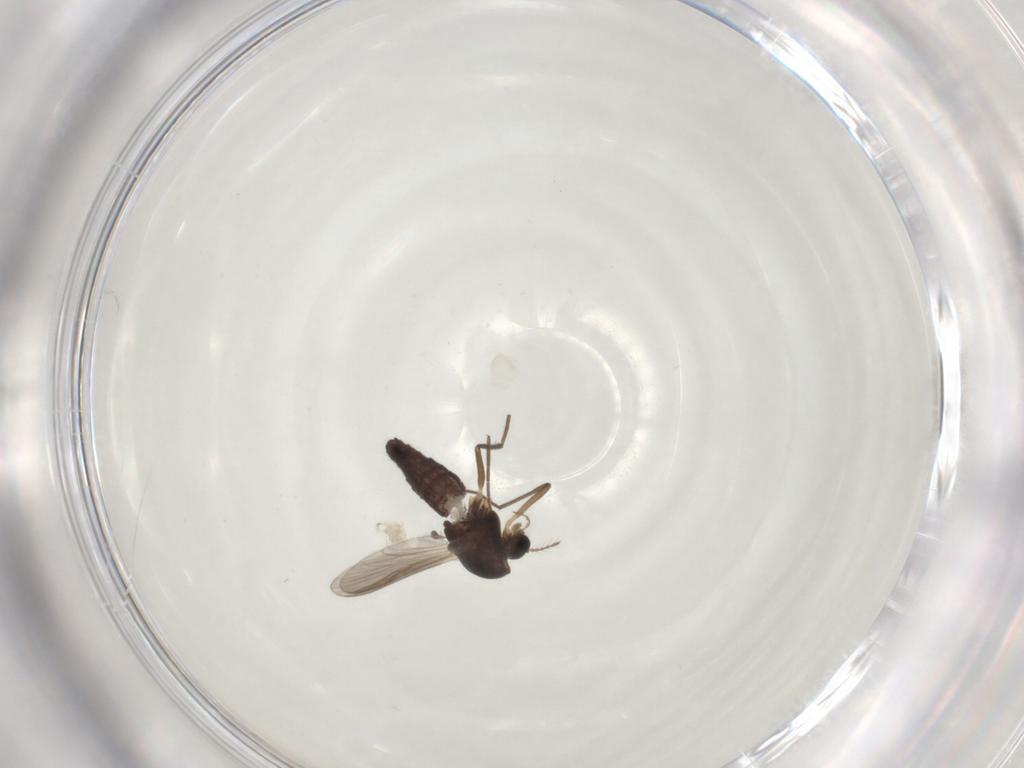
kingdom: Animalia
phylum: Arthropoda
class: Insecta
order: Diptera
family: Chironomidae
